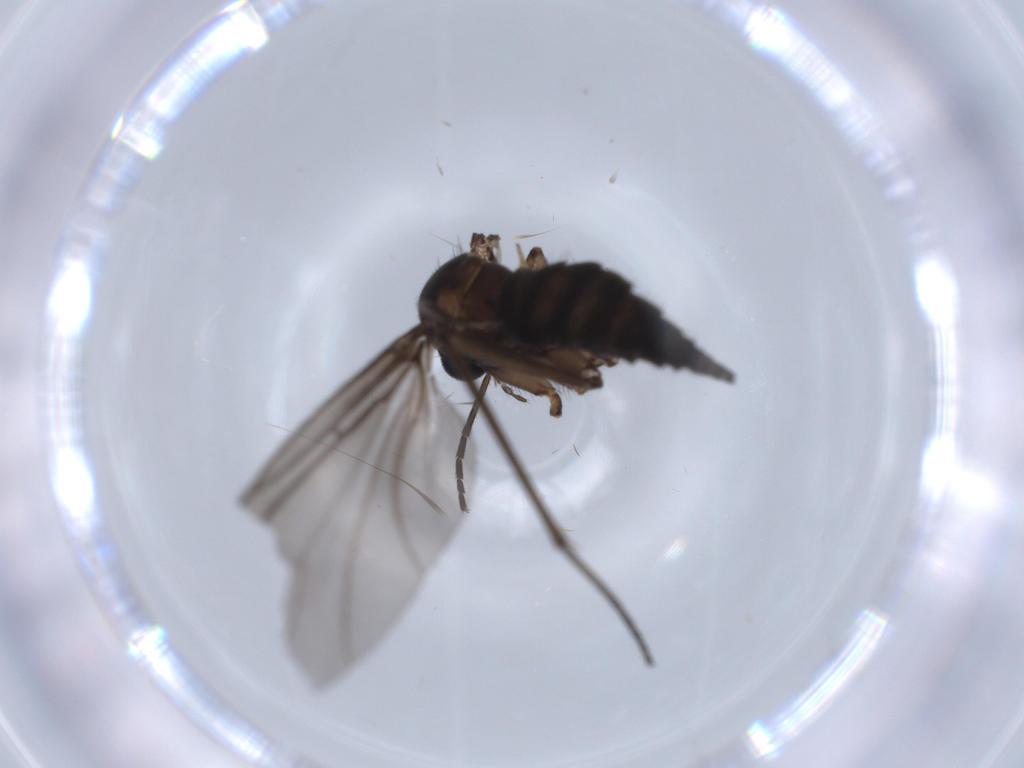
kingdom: Animalia
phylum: Arthropoda
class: Insecta
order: Diptera
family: Sciaridae
